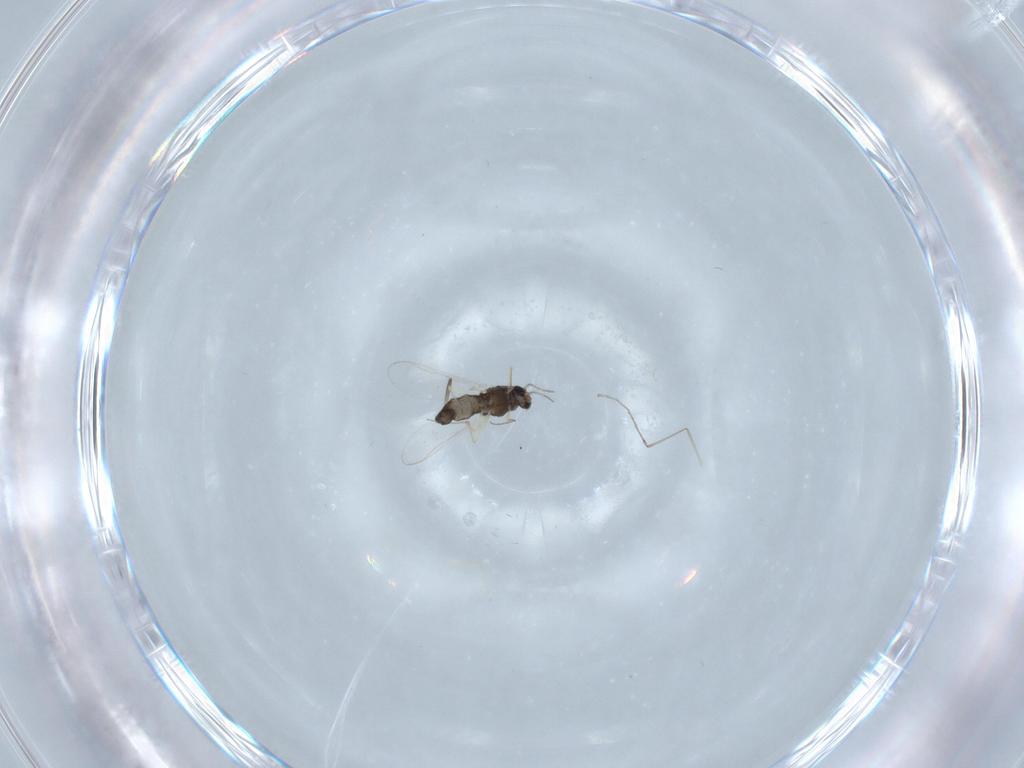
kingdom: Animalia
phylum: Arthropoda
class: Insecta
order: Diptera
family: Chironomidae
